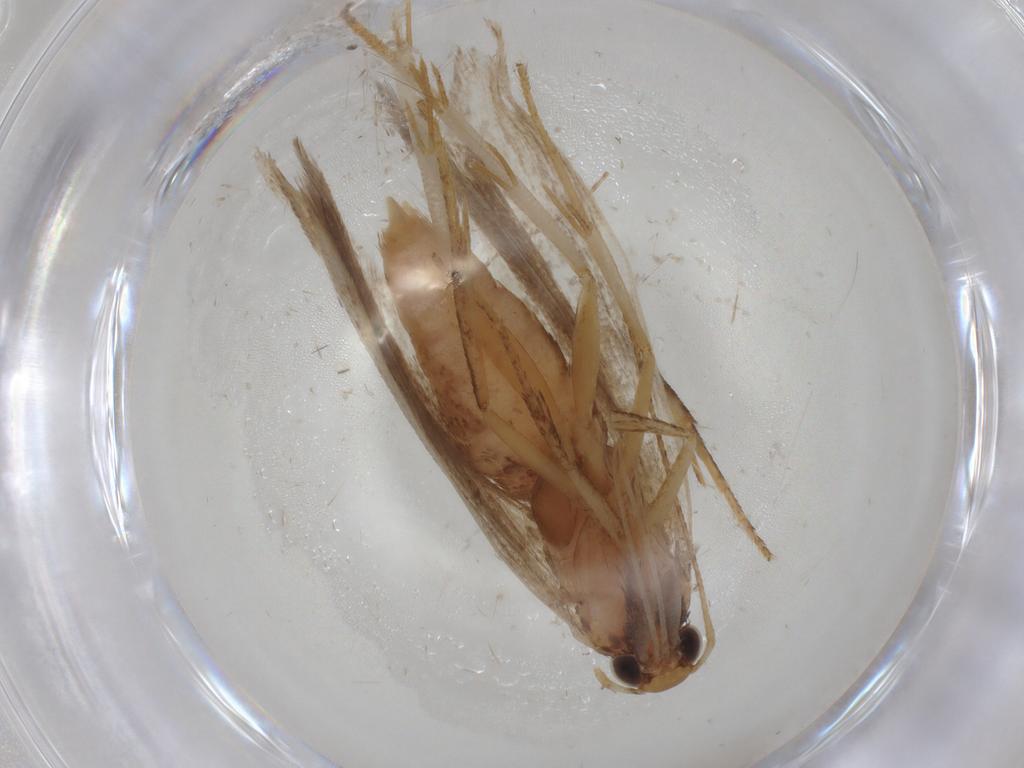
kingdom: Animalia
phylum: Arthropoda
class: Insecta
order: Lepidoptera
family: Gelechiidae
